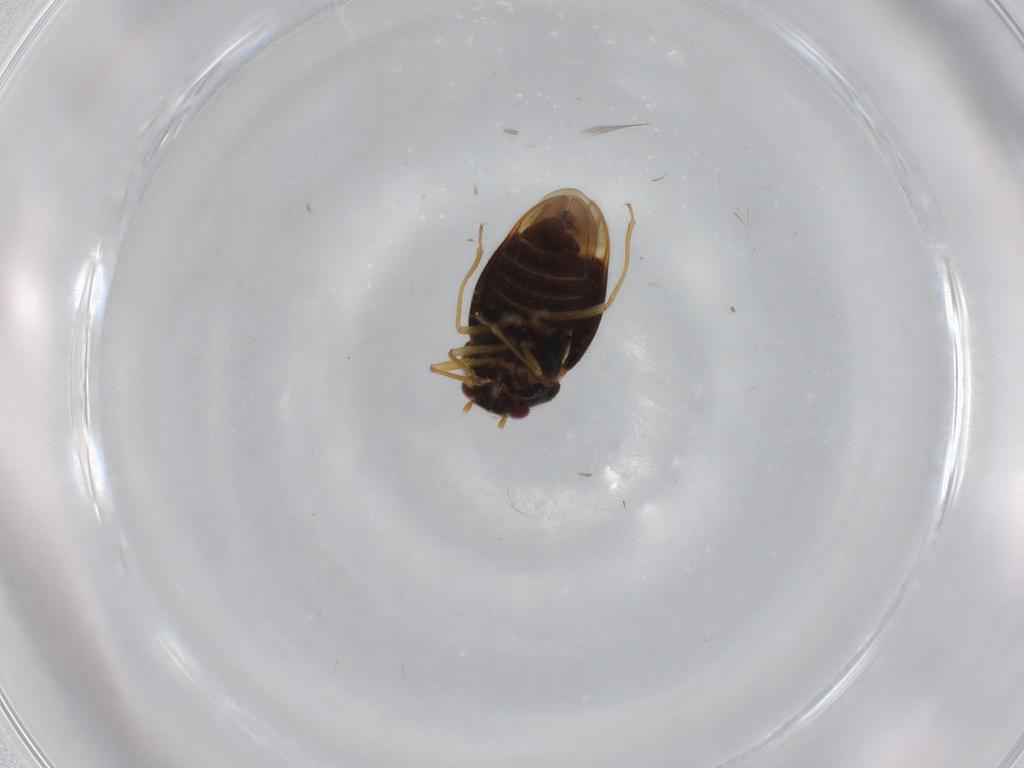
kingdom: Animalia
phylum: Arthropoda
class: Insecta
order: Hemiptera
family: Schizopteridae
